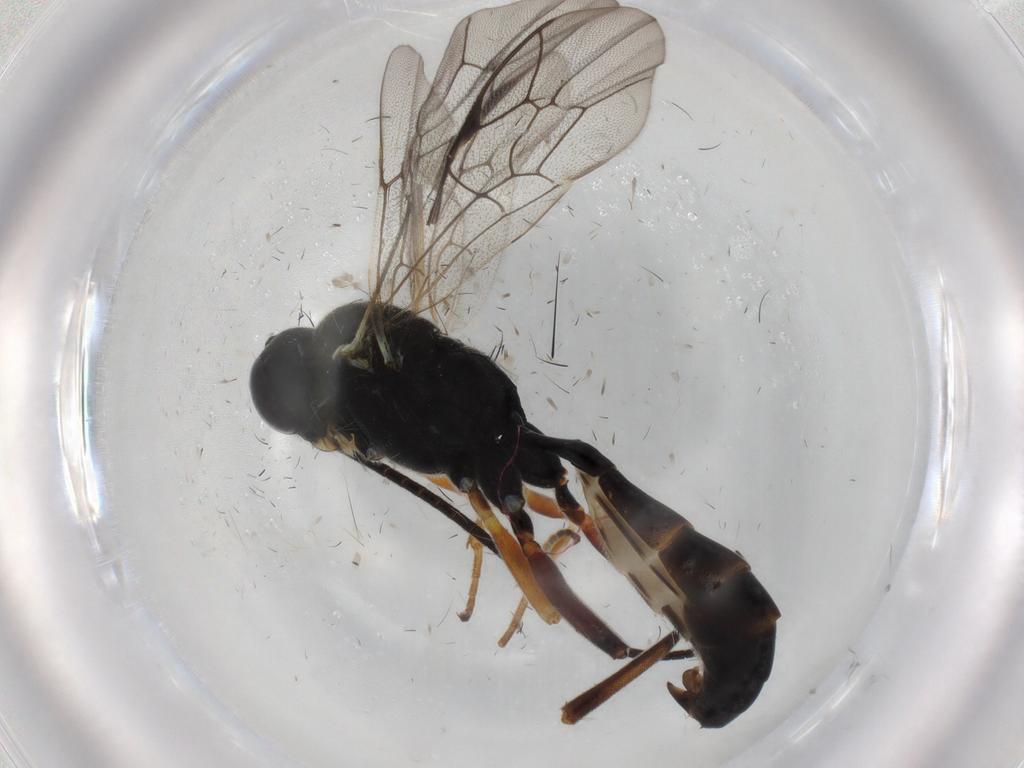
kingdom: Animalia
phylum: Arthropoda
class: Insecta
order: Hymenoptera
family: Ichneumonidae
